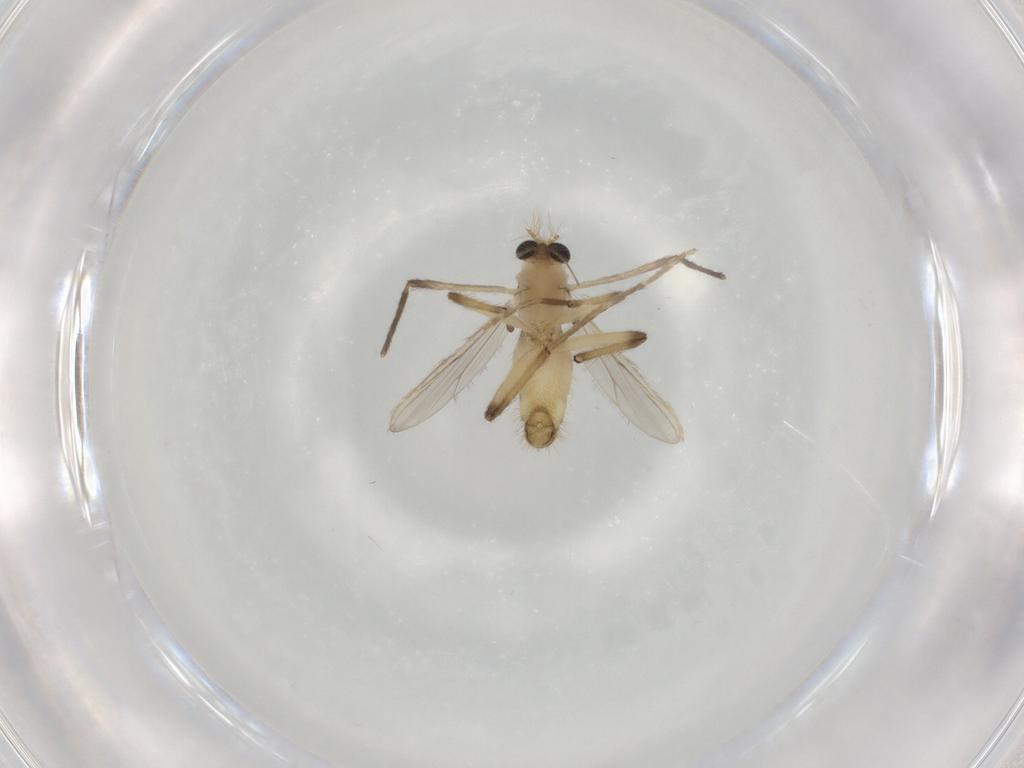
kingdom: Animalia
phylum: Arthropoda
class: Insecta
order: Diptera
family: Chironomidae
